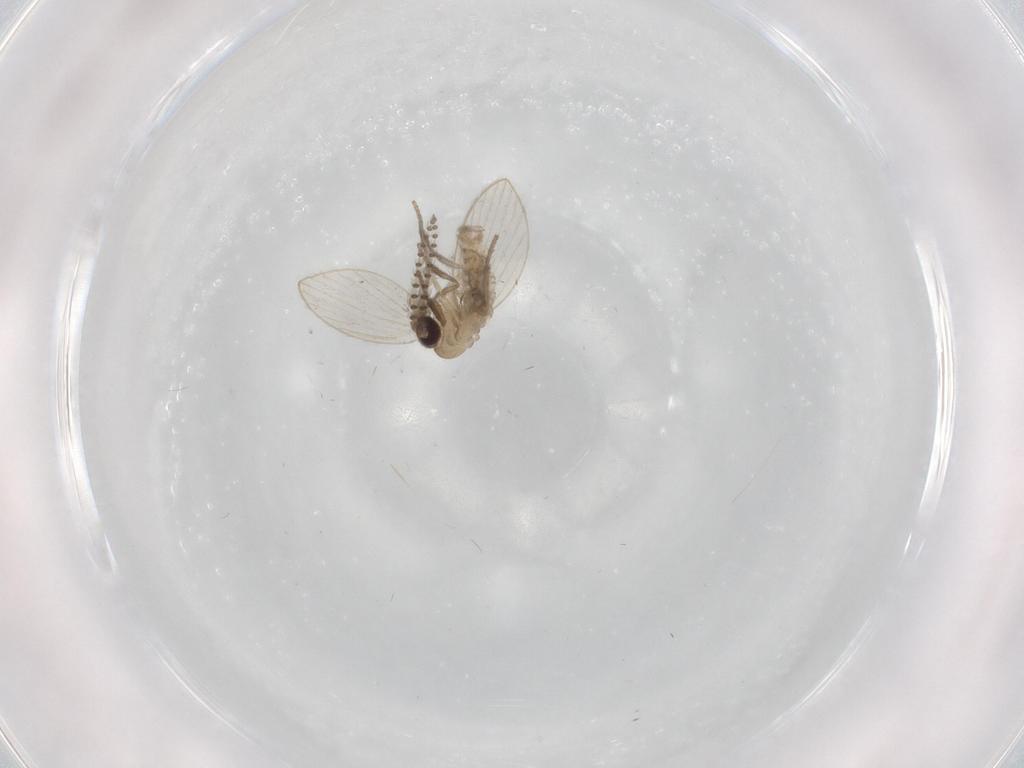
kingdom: Animalia
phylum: Arthropoda
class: Insecta
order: Diptera
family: Psychodidae
